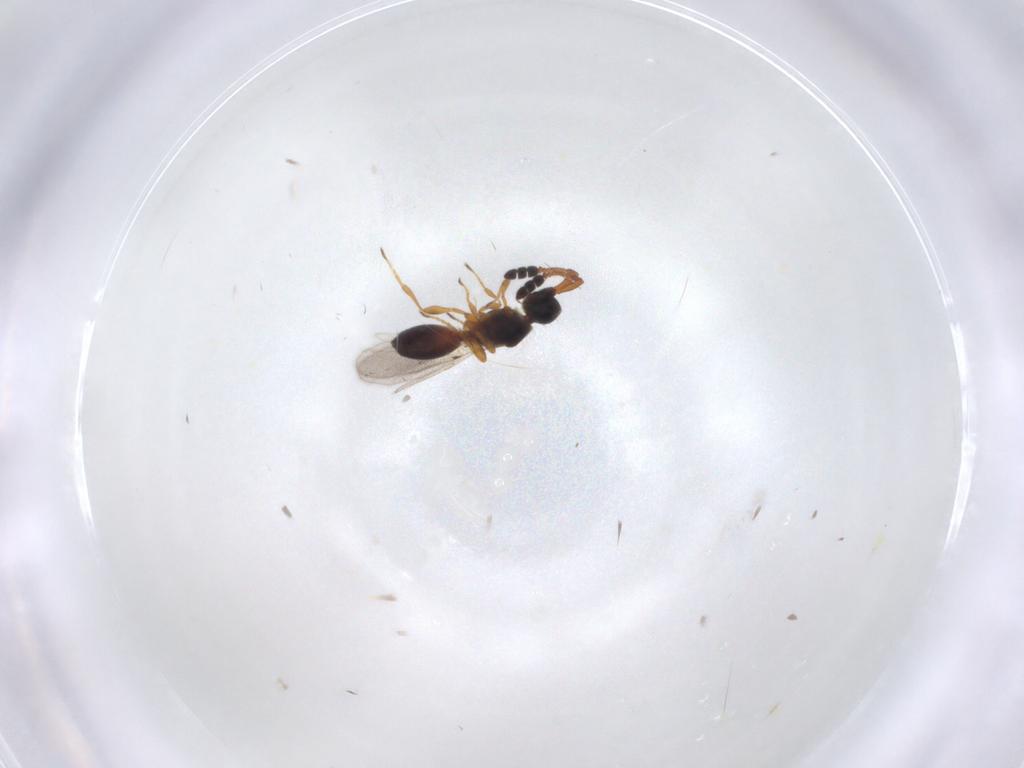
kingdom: Animalia
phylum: Arthropoda
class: Insecta
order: Hymenoptera
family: Diapriidae
